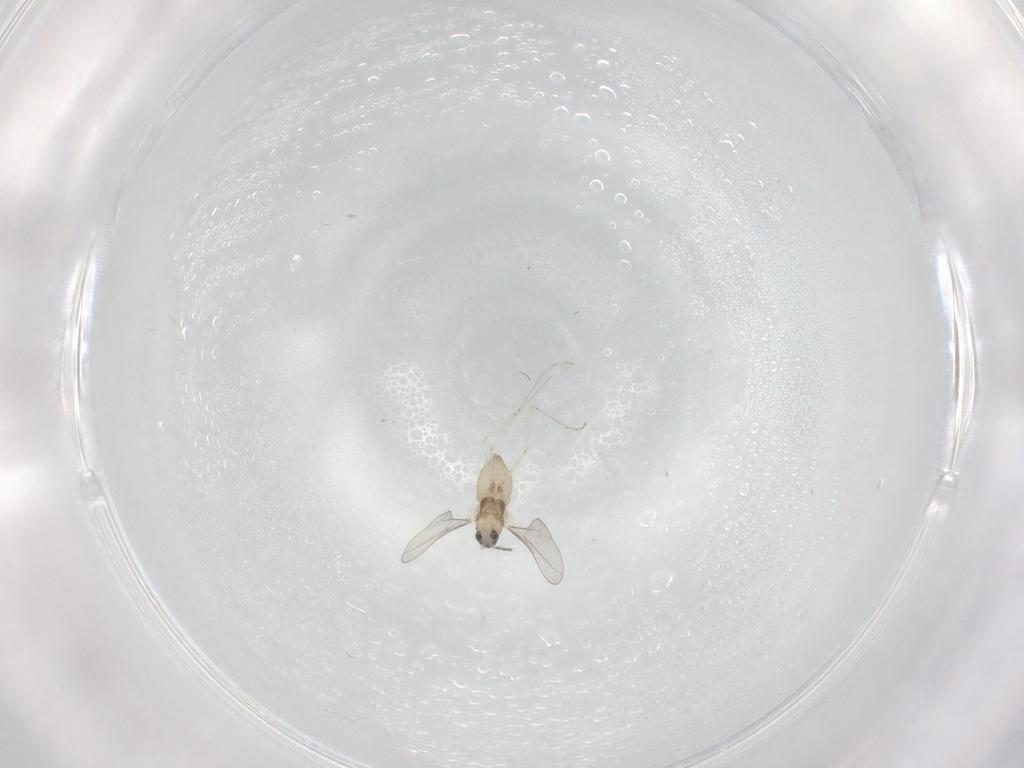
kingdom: Animalia
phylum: Arthropoda
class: Insecta
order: Diptera
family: Cecidomyiidae
